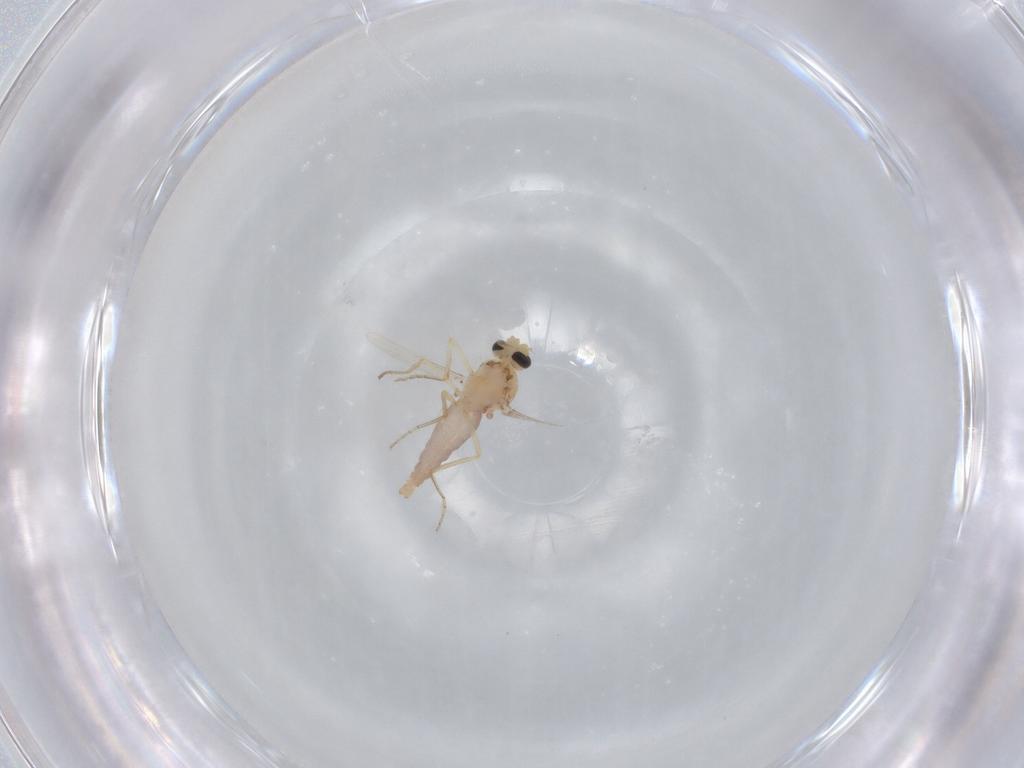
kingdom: Animalia
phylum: Arthropoda
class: Insecta
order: Diptera
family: Ceratopogonidae
